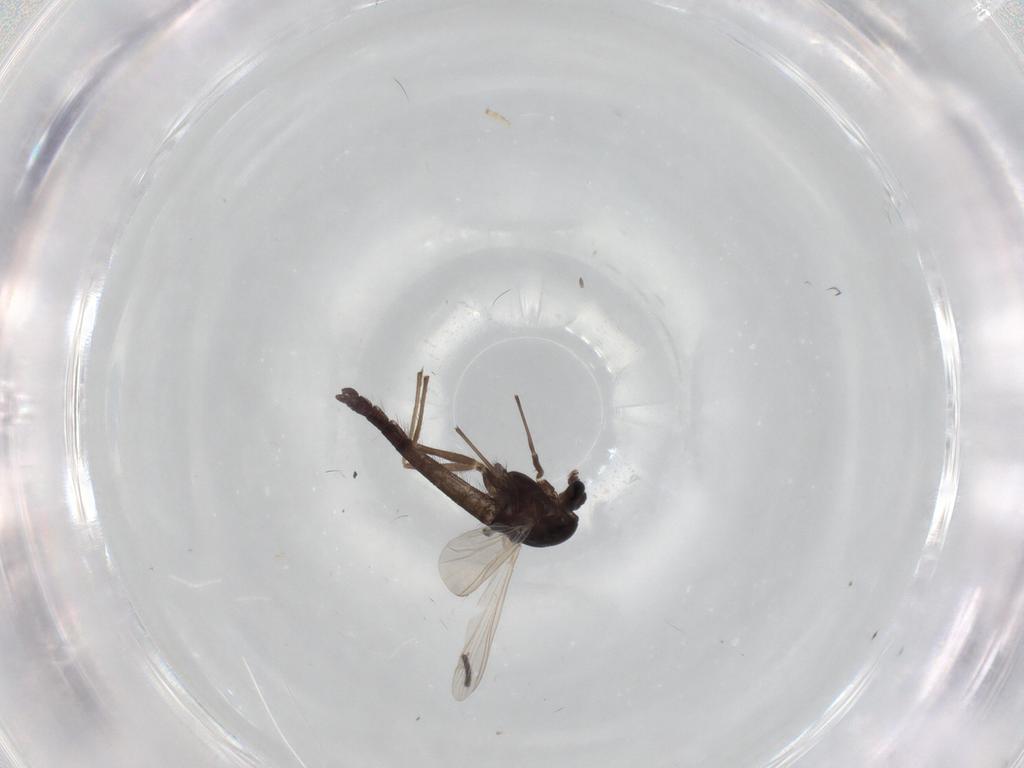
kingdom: Animalia
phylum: Arthropoda
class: Insecta
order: Diptera
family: Chironomidae
